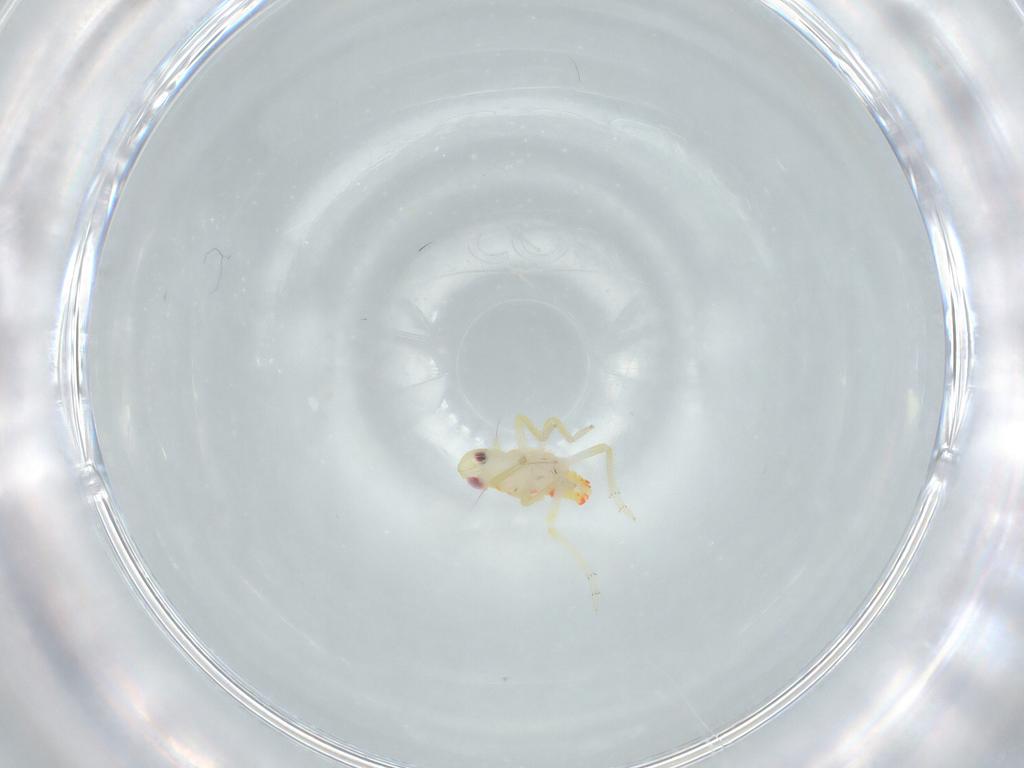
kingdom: Animalia
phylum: Arthropoda
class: Insecta
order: Hemiptera
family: Tropiduchidae
